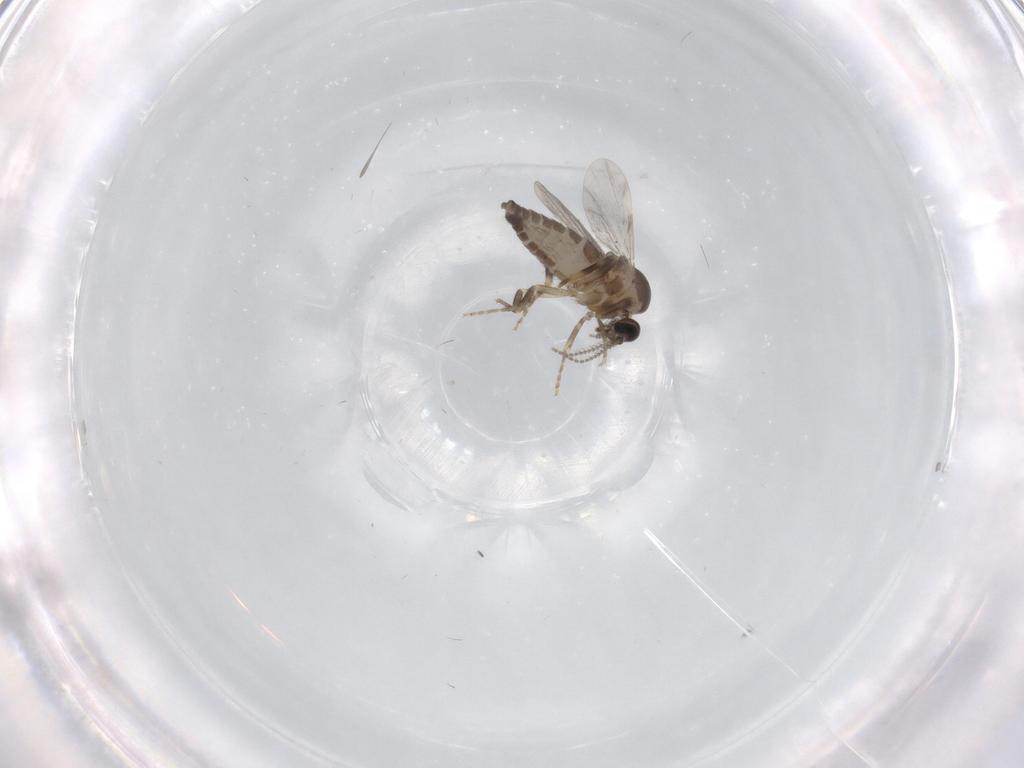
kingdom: Animalia
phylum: Arthropoda
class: Insecta
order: Diptera
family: Ceratopogonidae
